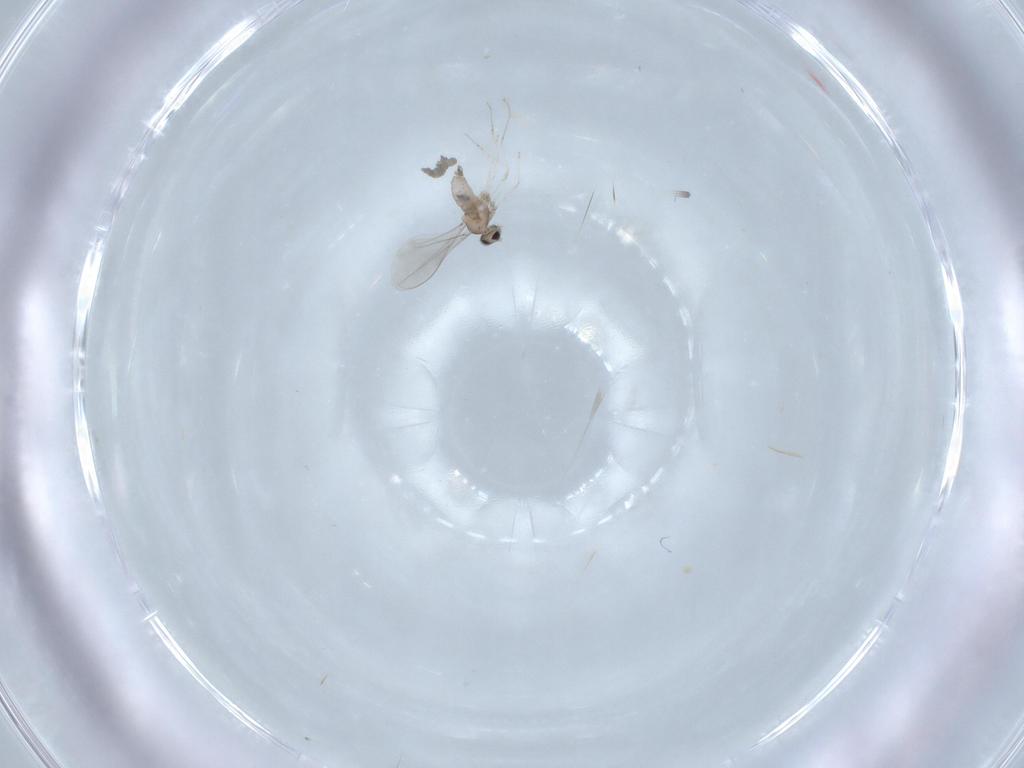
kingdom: Animalia
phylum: Arthropoda
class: Insecta
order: Diptera
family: Cecidomyiidae
